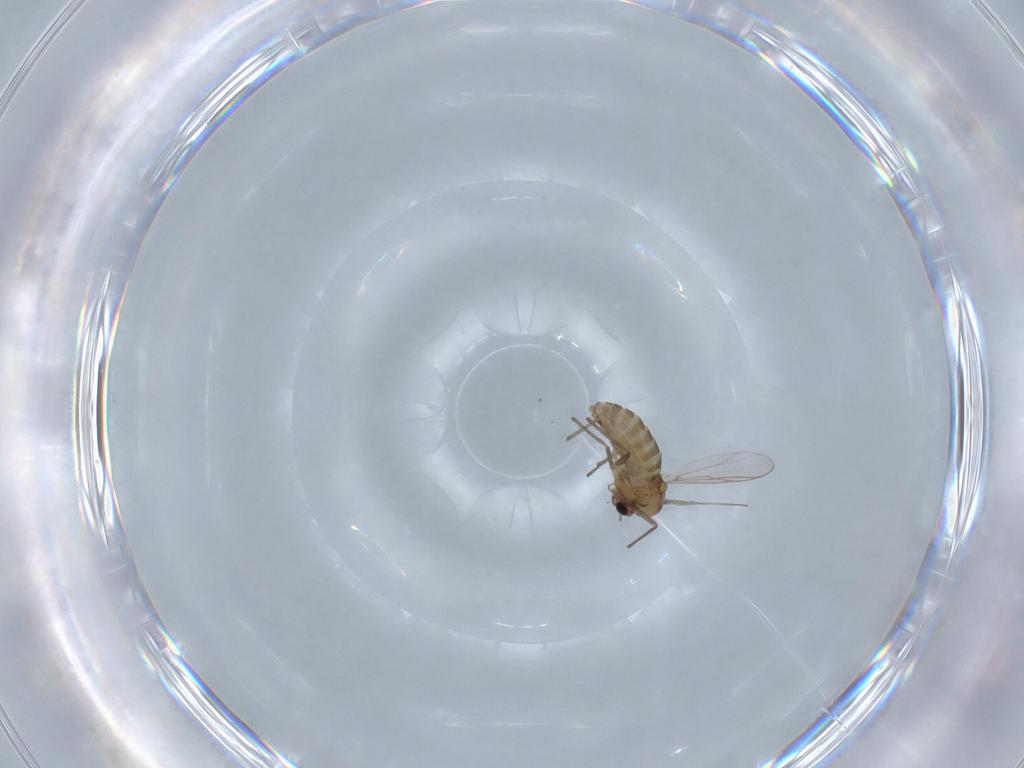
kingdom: Animalia
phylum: Arthropoda
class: Insecta
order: Diptera
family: Chironomidae
